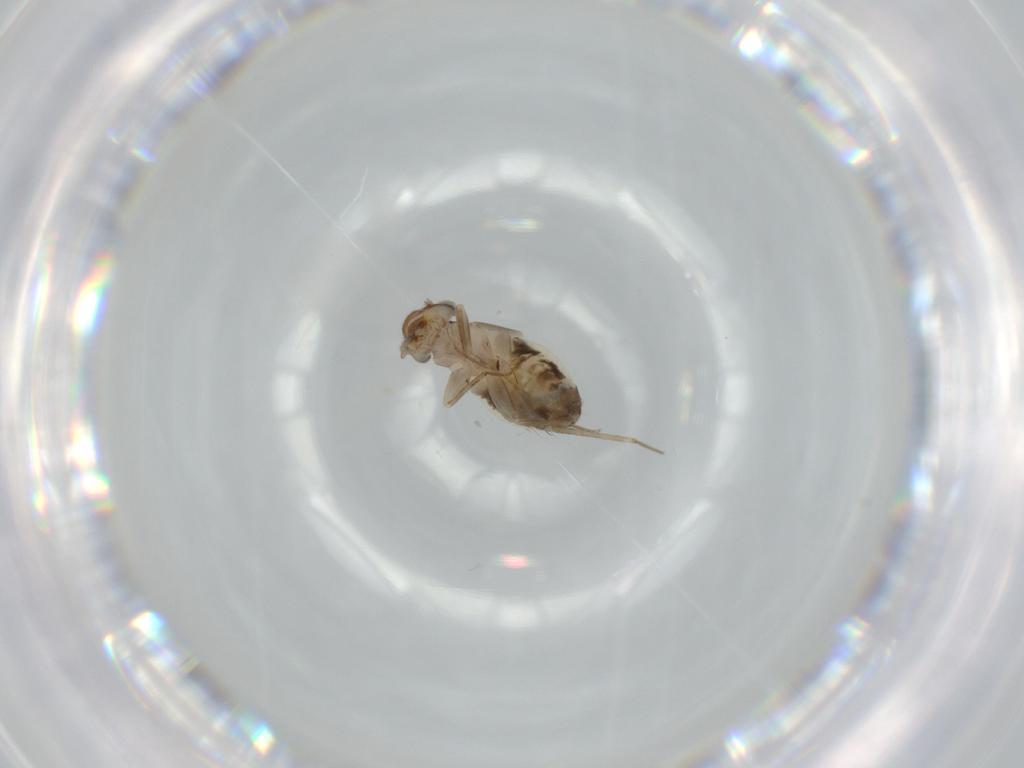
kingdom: Animalia
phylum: Arthropoda
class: Insecta
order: Psocodea
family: Lepidopsocidae
